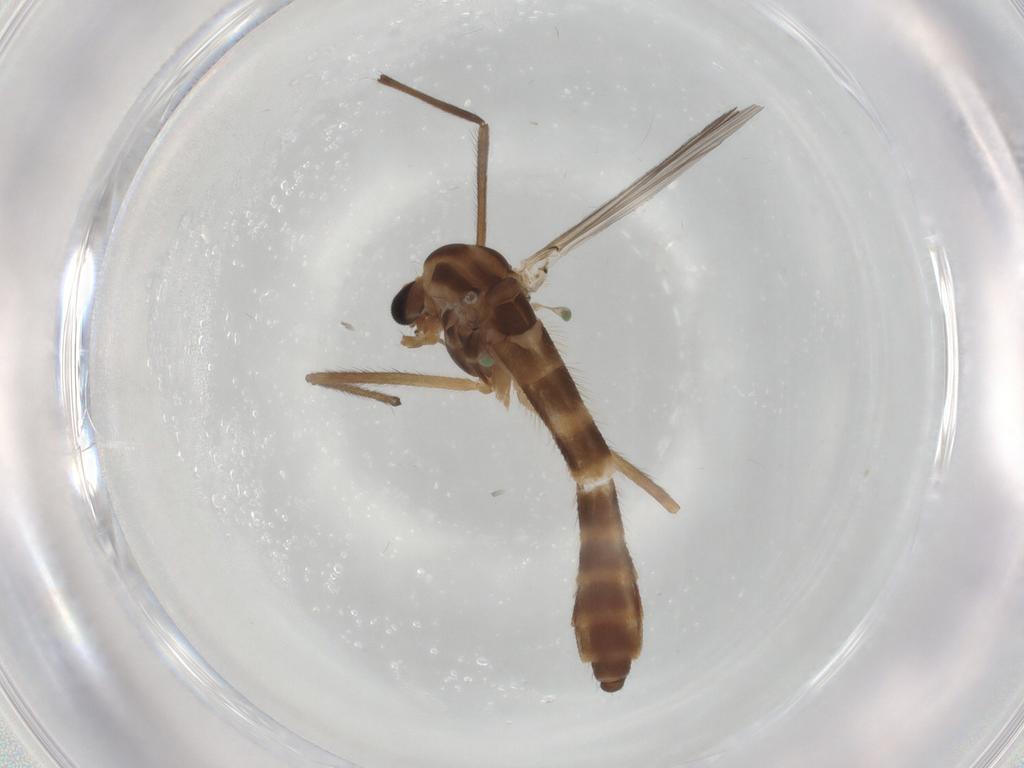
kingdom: Animalia
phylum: Arthropoda
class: Insecta
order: Diptera
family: Chironomidae
